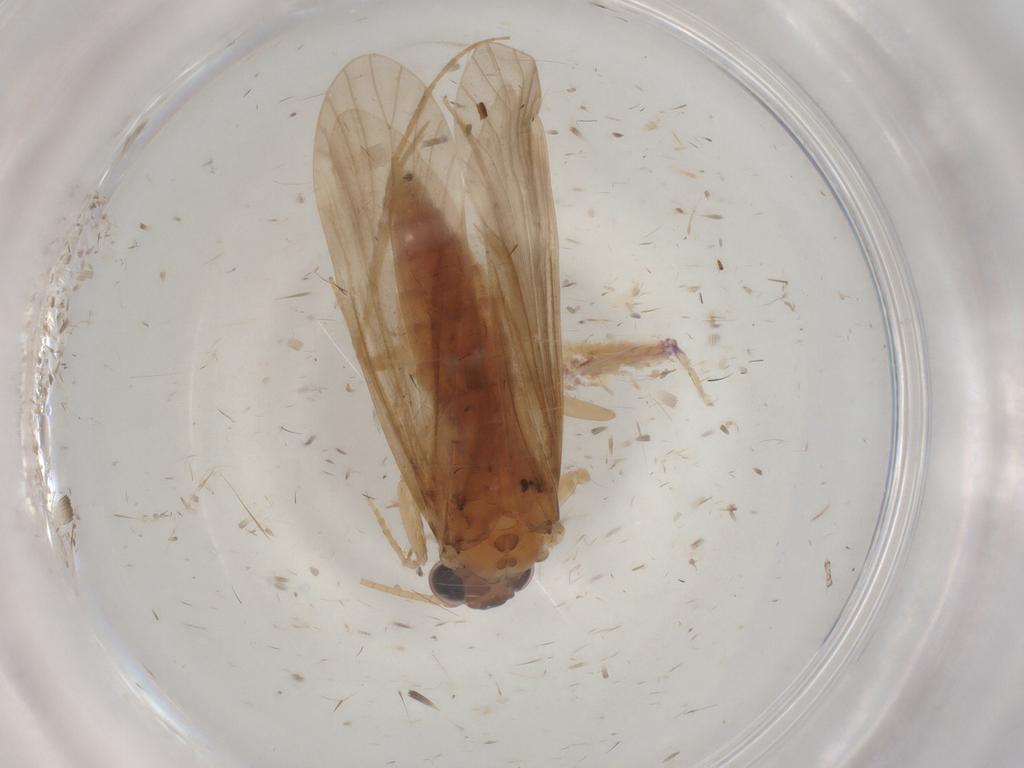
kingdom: Animalia
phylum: Arthropoda
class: Insecta
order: Trichoptera
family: Ecnomidae
